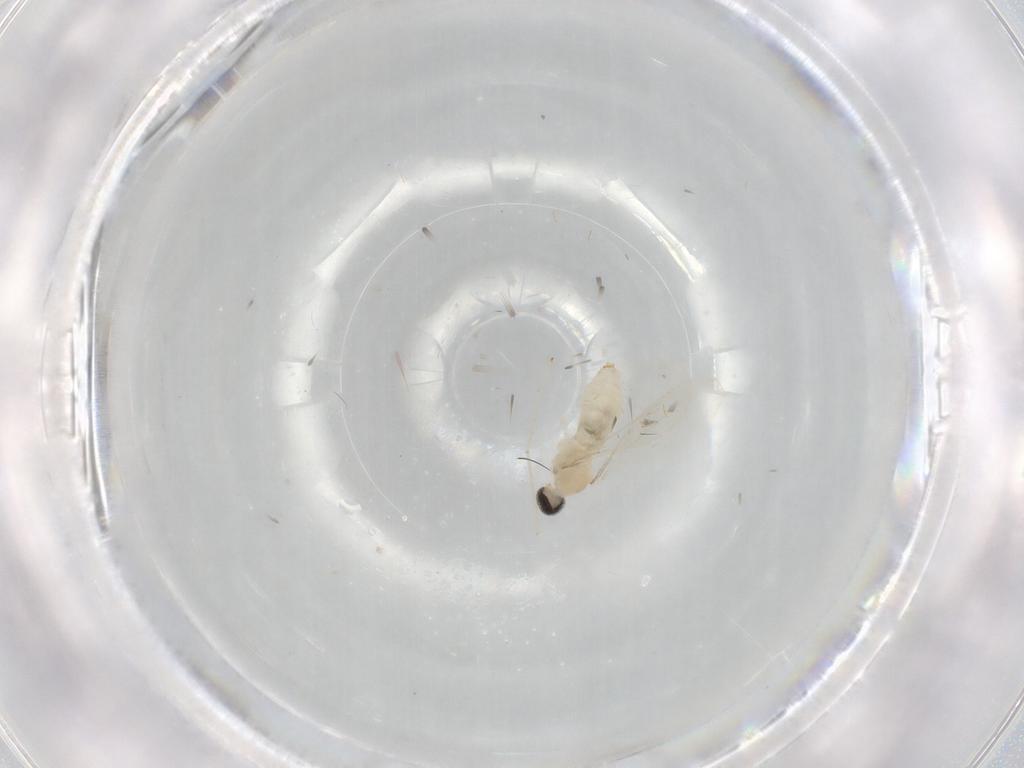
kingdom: Animalia
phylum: Arthropoda
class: Insecta
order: Diptera
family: Cecidomyiidae
